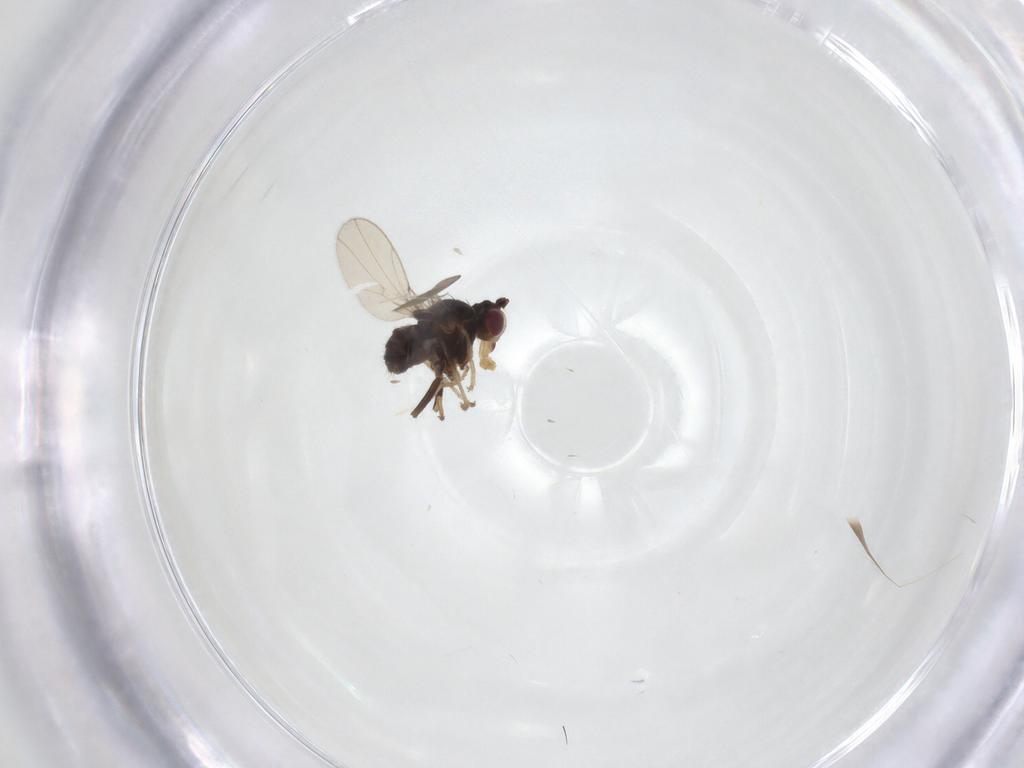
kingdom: Animalia
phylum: Arthropoda
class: Insecta
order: Diptera
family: Ephydridae
